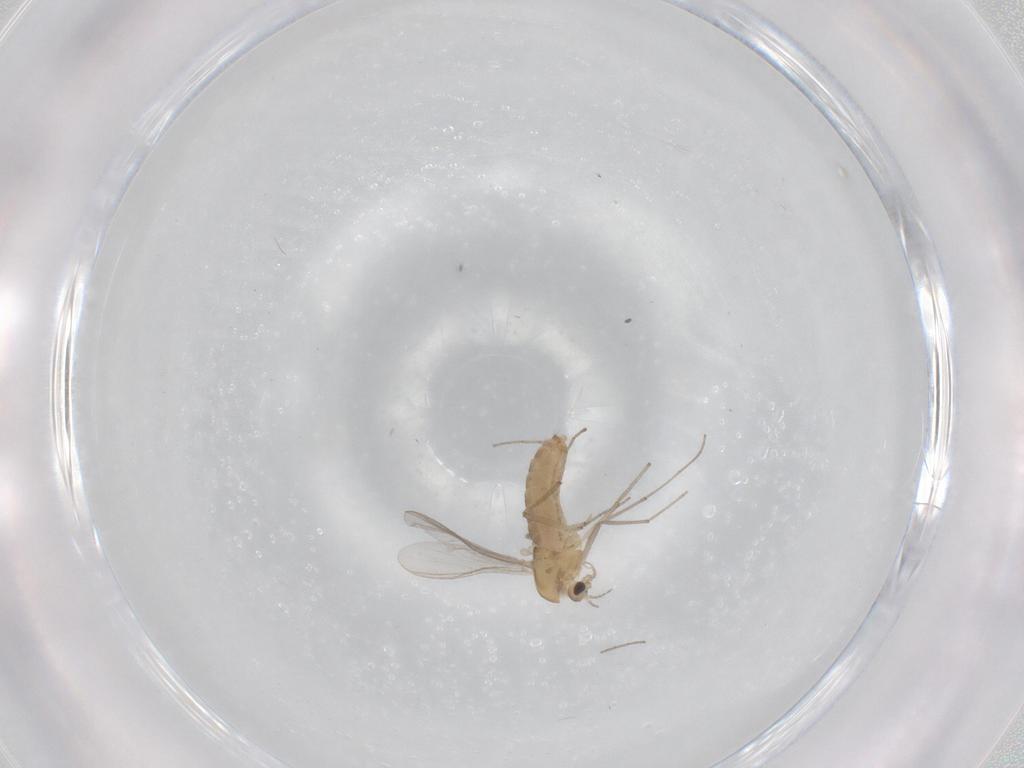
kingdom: Animalia
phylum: Arthropoda
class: Insecta
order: Diptera
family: Chironomidae
